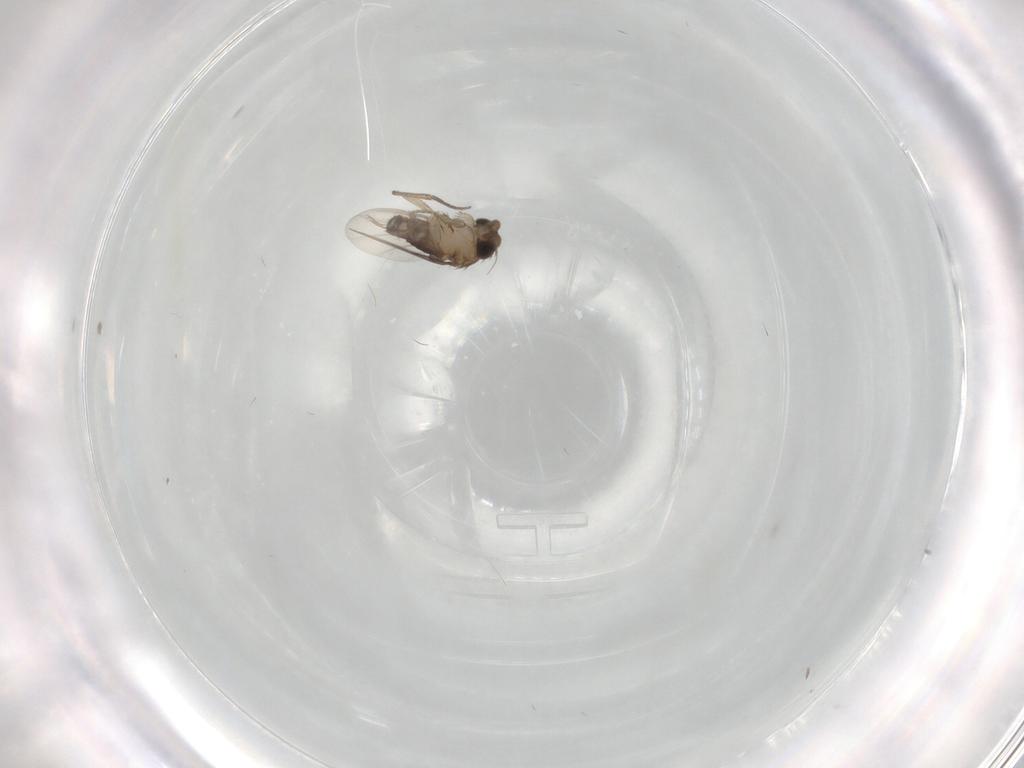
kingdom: Animalia
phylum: Arthropoda
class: Insecta
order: Diptera
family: Phoridae
